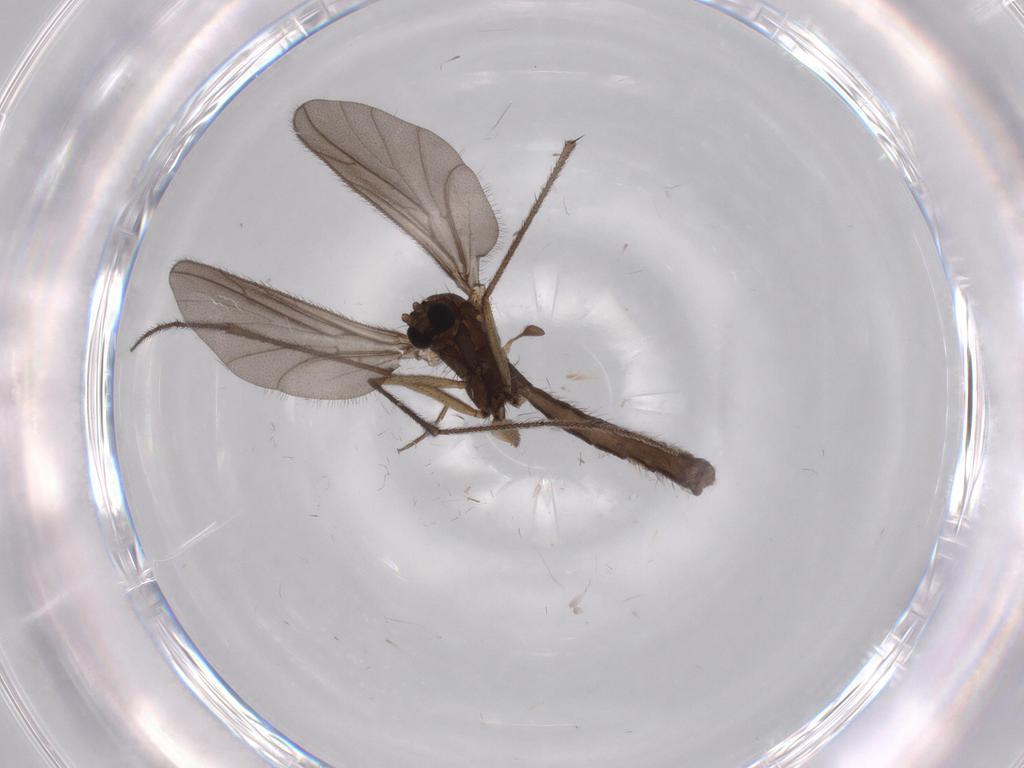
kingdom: Animalia
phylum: Arthropoda
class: Insecta
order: Diptera
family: Ditomyiidae
